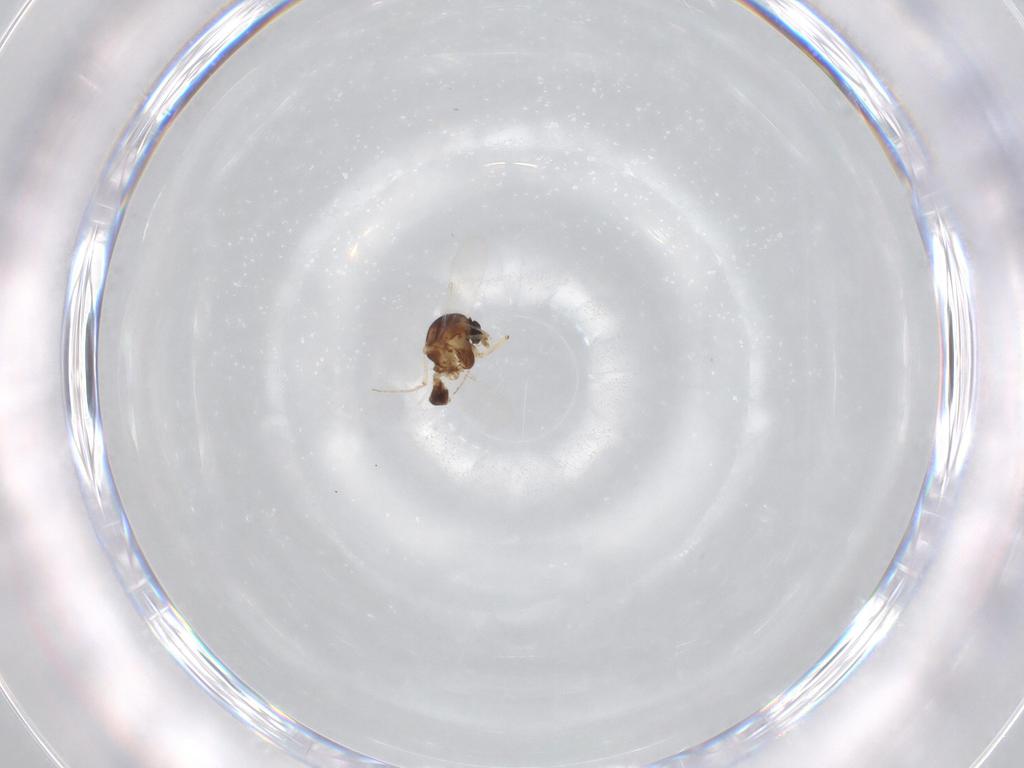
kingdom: Animalia
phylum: Arthropoda
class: Insecta
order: Diptera
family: Ceratopogonidae
